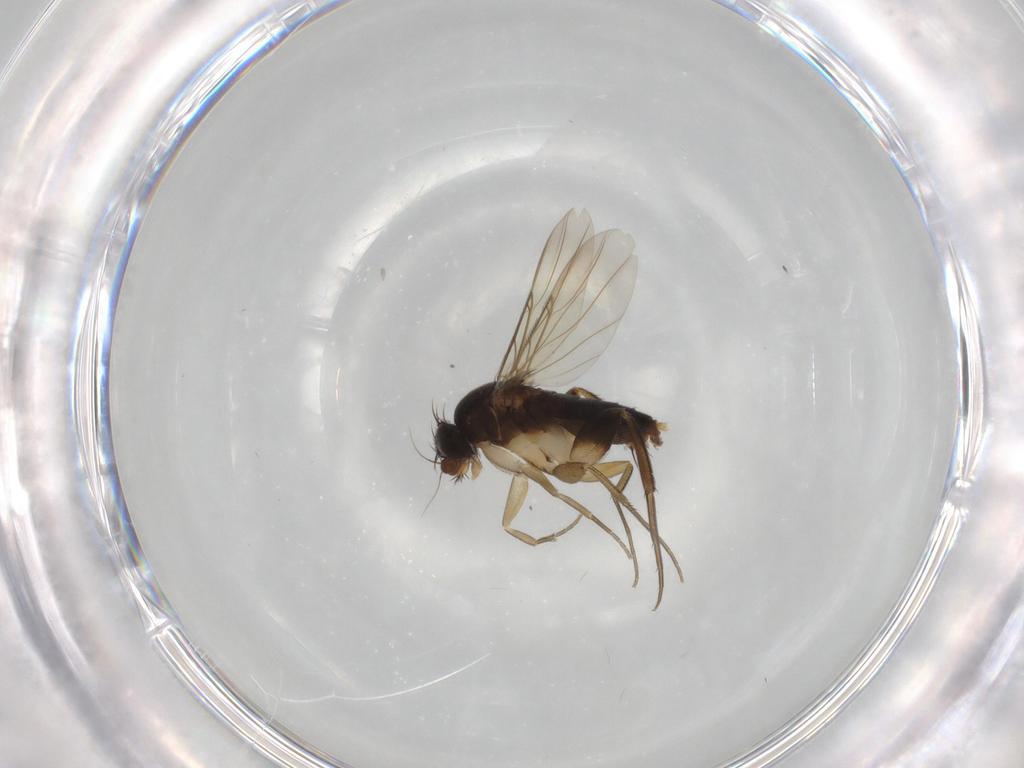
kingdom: Animalia
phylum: Arthropoda
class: Insecta
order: Diptera
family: Phoridae
